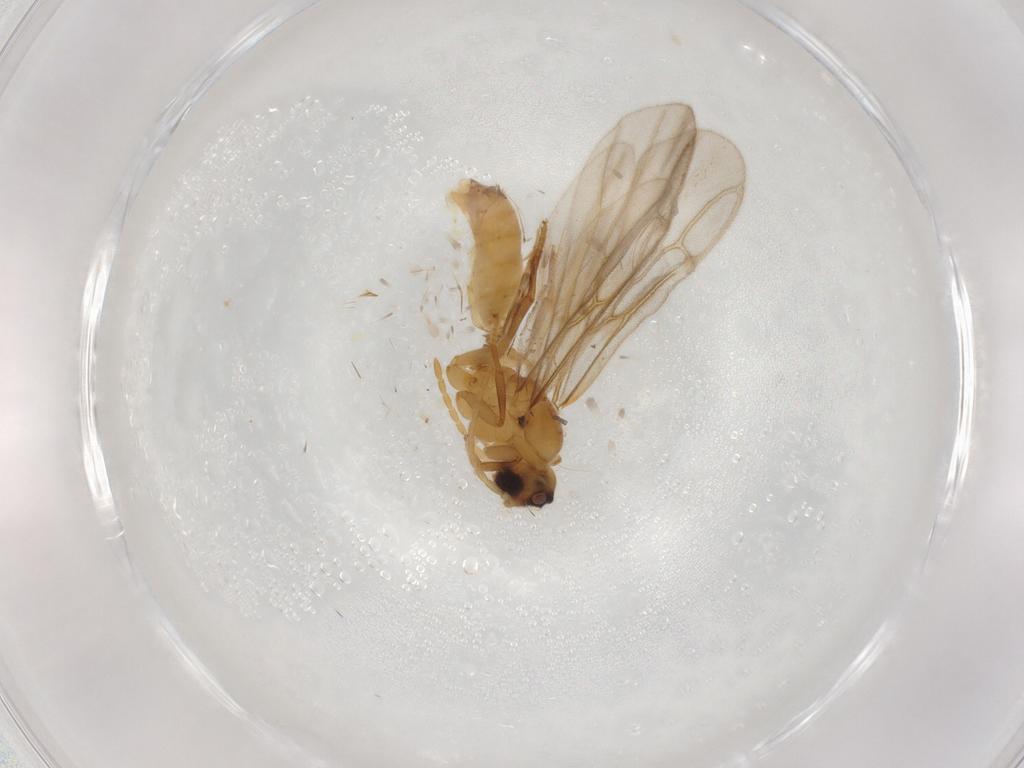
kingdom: Animalia
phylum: Arthropoda
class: Insecta
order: Hymenoptera
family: Formicidae
